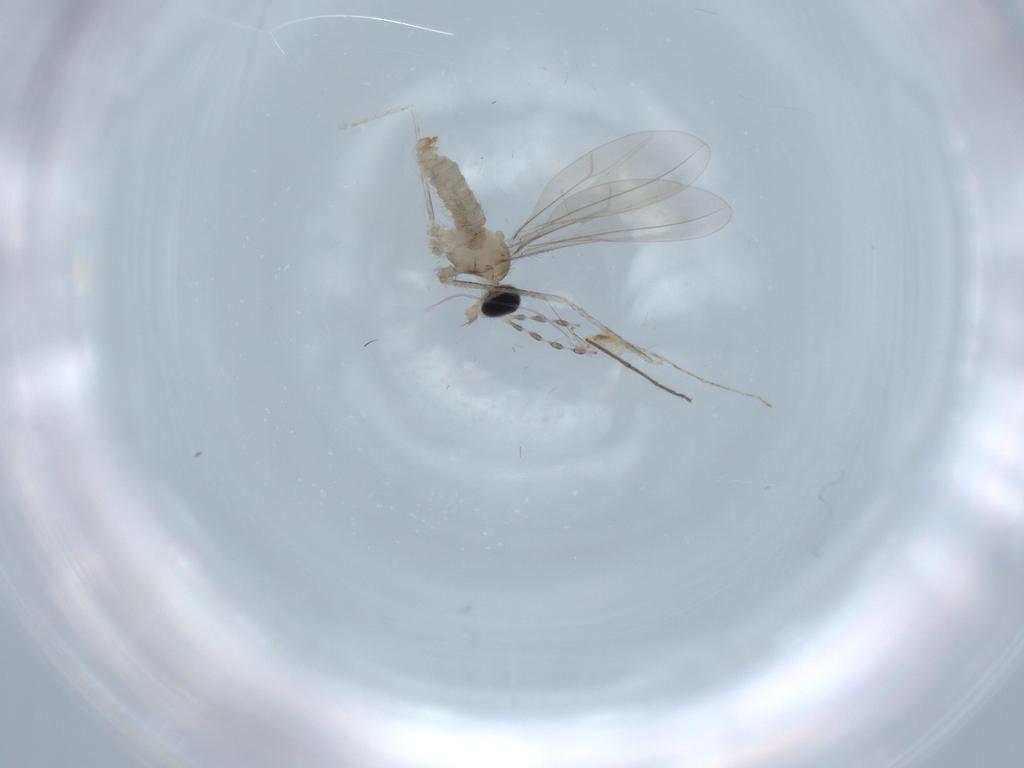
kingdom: Animalia
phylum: Arthropoda
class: Insecta
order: Diptera
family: Cecidomyiidae
